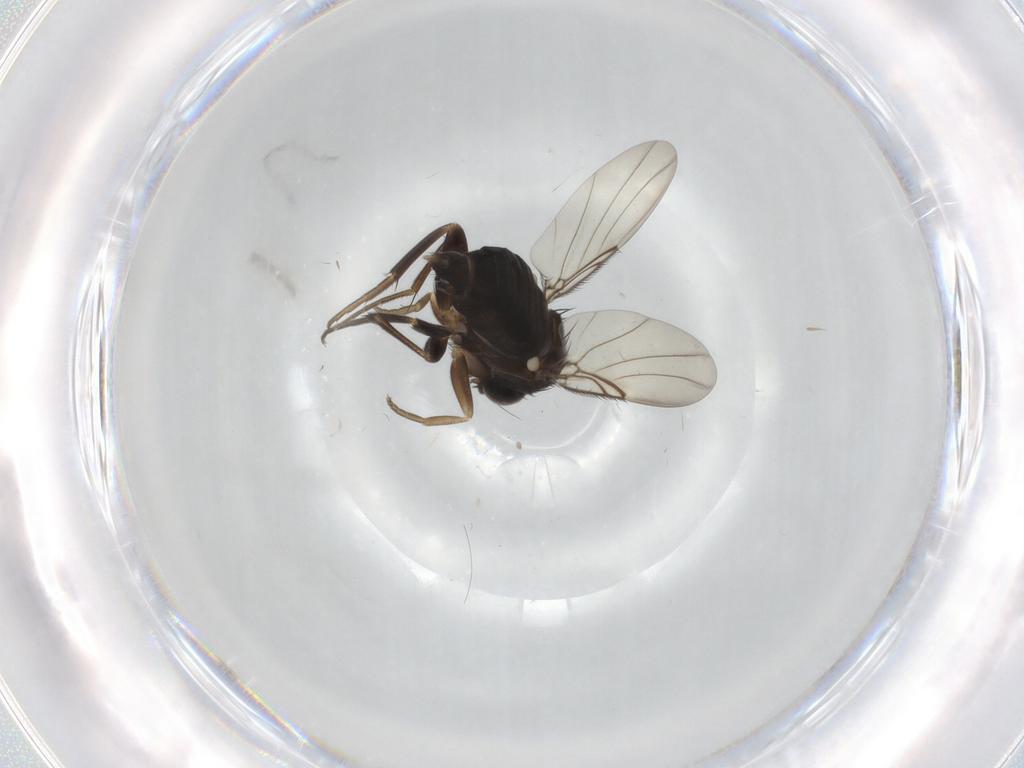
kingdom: Animalia
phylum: Arthropoda
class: Insecta
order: Diptera
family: Phoridae
